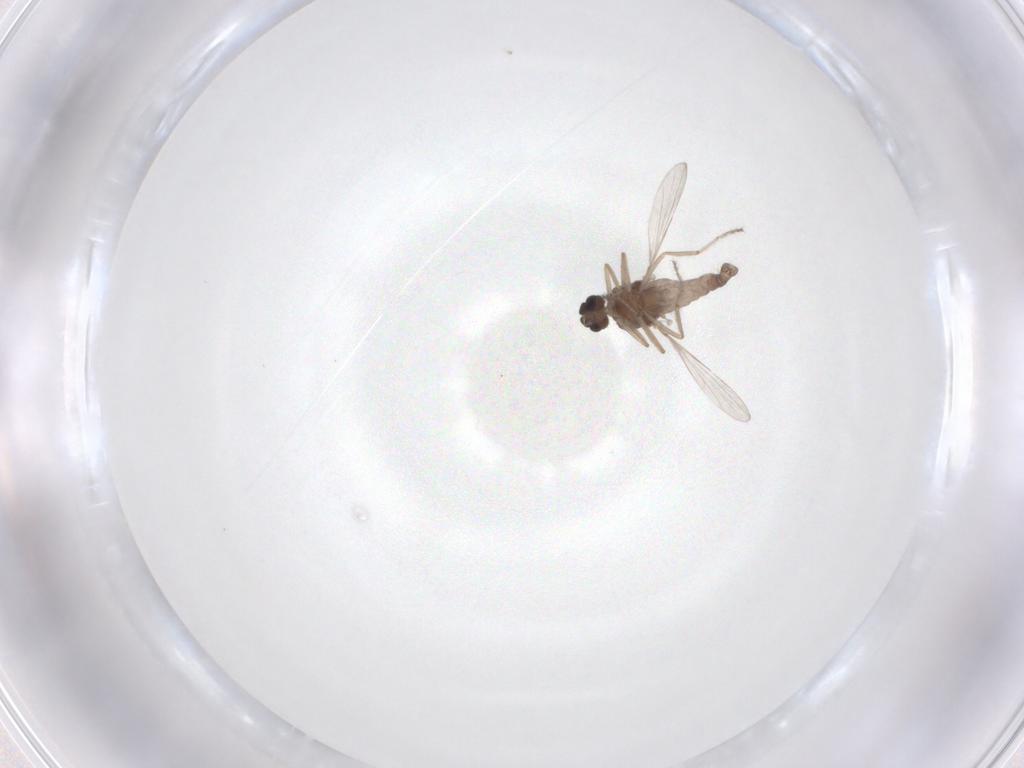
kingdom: Animalia
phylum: Arthropoda
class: Insecta
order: Diptera
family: Ceratopogonidae
